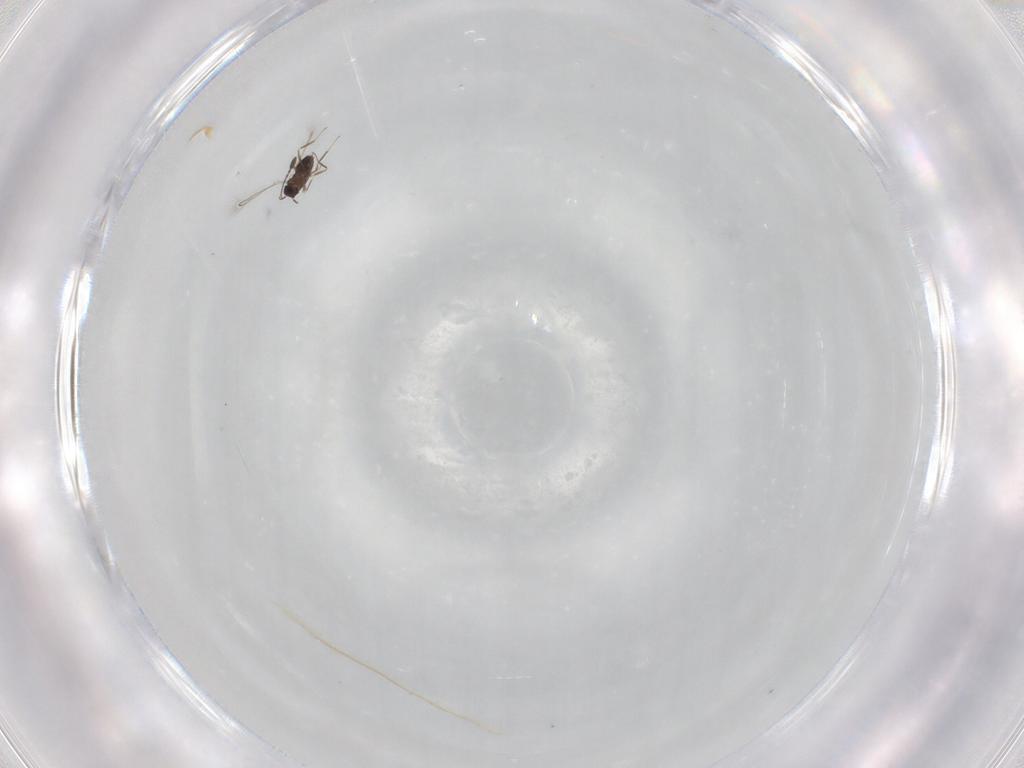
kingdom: Animalia
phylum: Arthropoda
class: Insecta
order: Hymenoptera
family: Mymaridae
